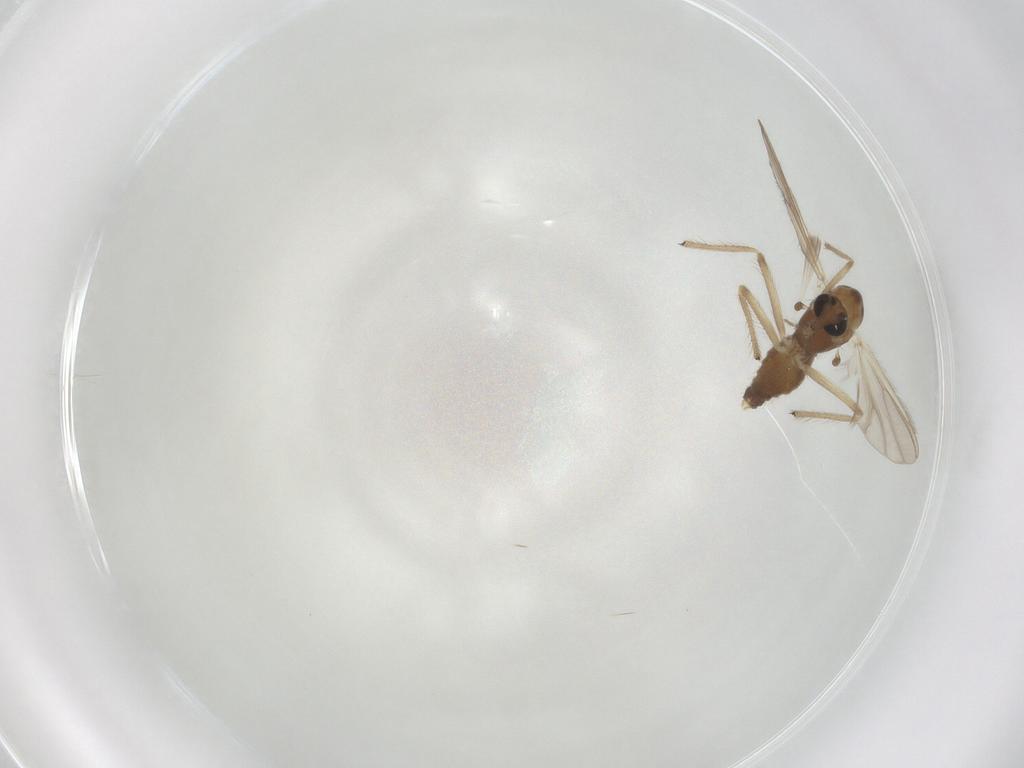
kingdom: Animalia
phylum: Arthropoda
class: Insecta
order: Diptera
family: Chironomidae
